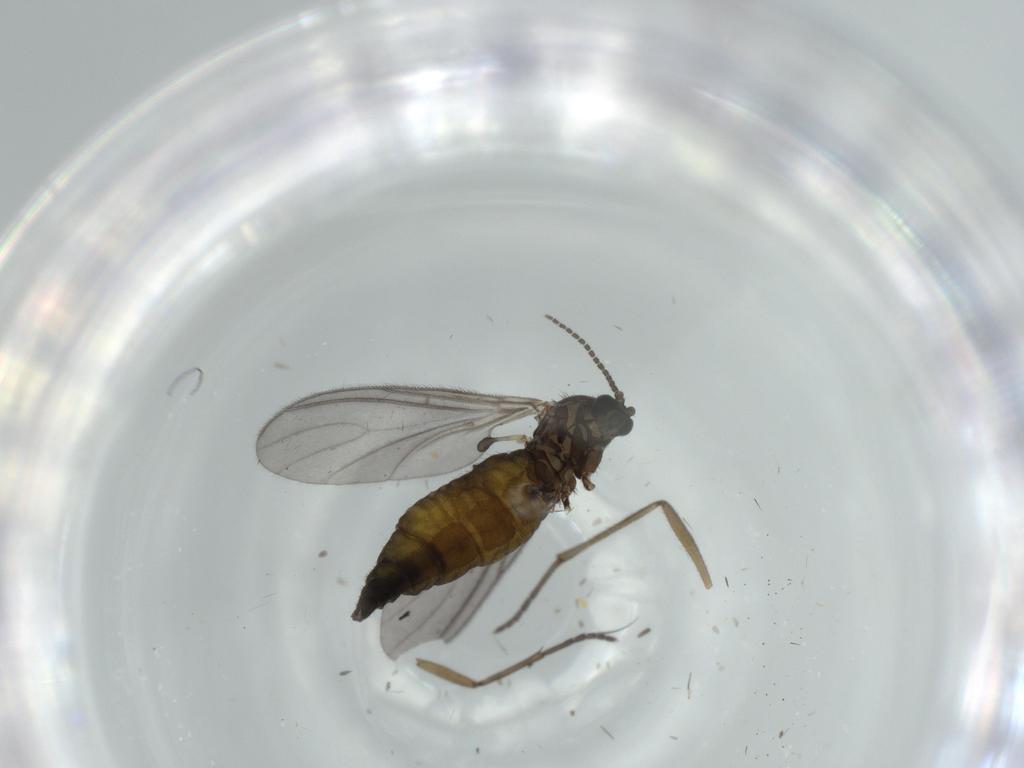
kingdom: Animalia
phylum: Arthropoda
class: Insecta
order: Diptera
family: Sciaridae
